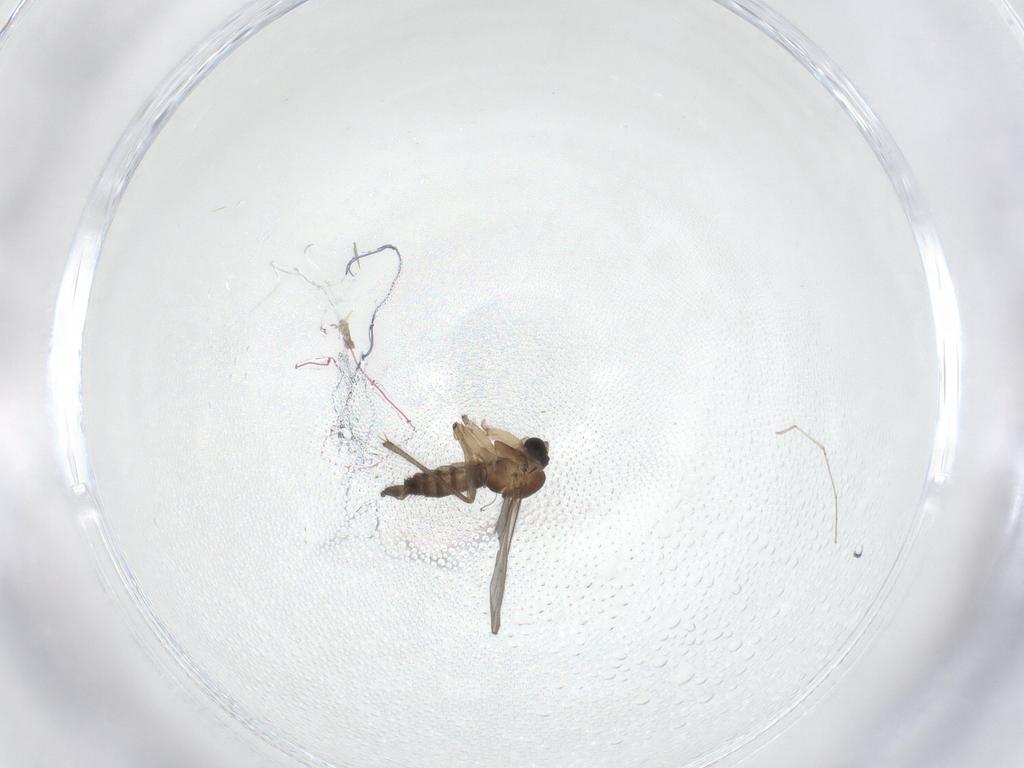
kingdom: Animalia
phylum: Arthropoda
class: Insecta
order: Diptera
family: Sciaridae
